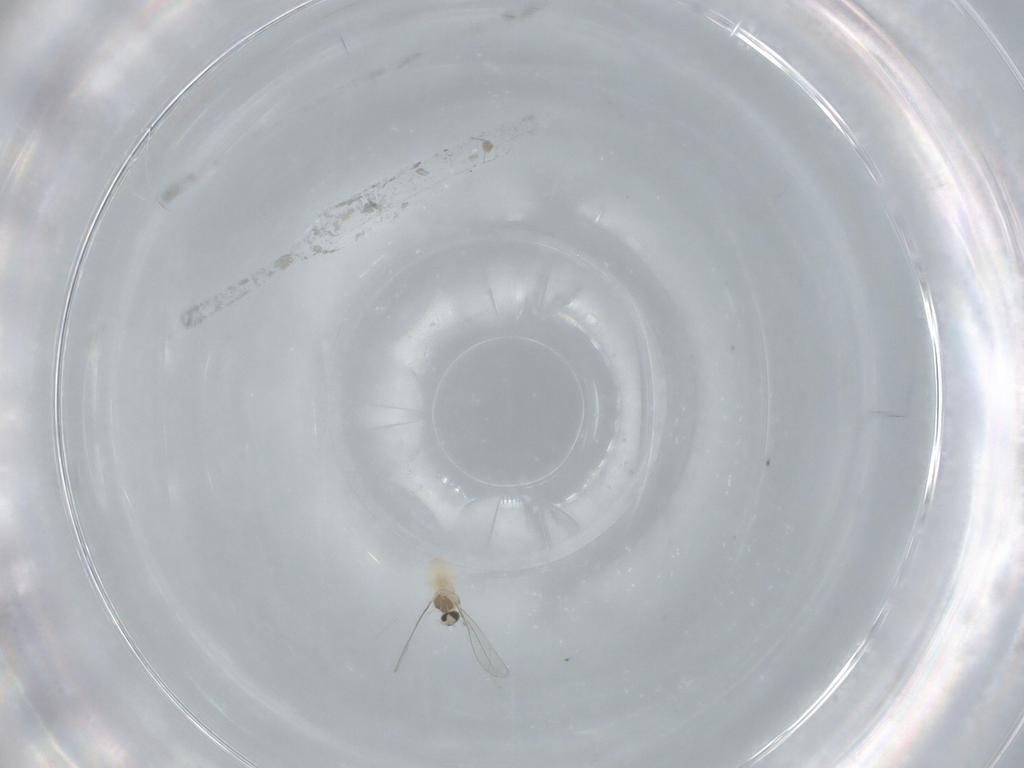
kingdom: Animalia
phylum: Arthropoda
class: Insecta
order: Diptera
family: Cecidomyiidae
